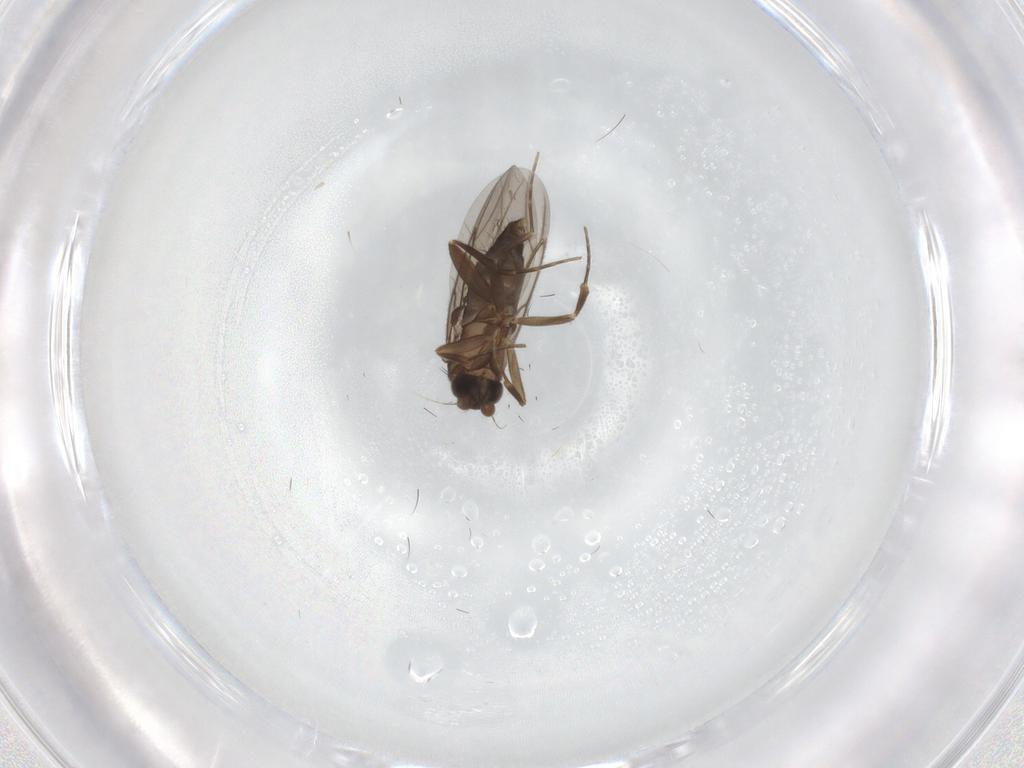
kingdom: Animalia
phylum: Arthropoda
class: Insecta
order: Diptera
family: Cecidomyiidae
